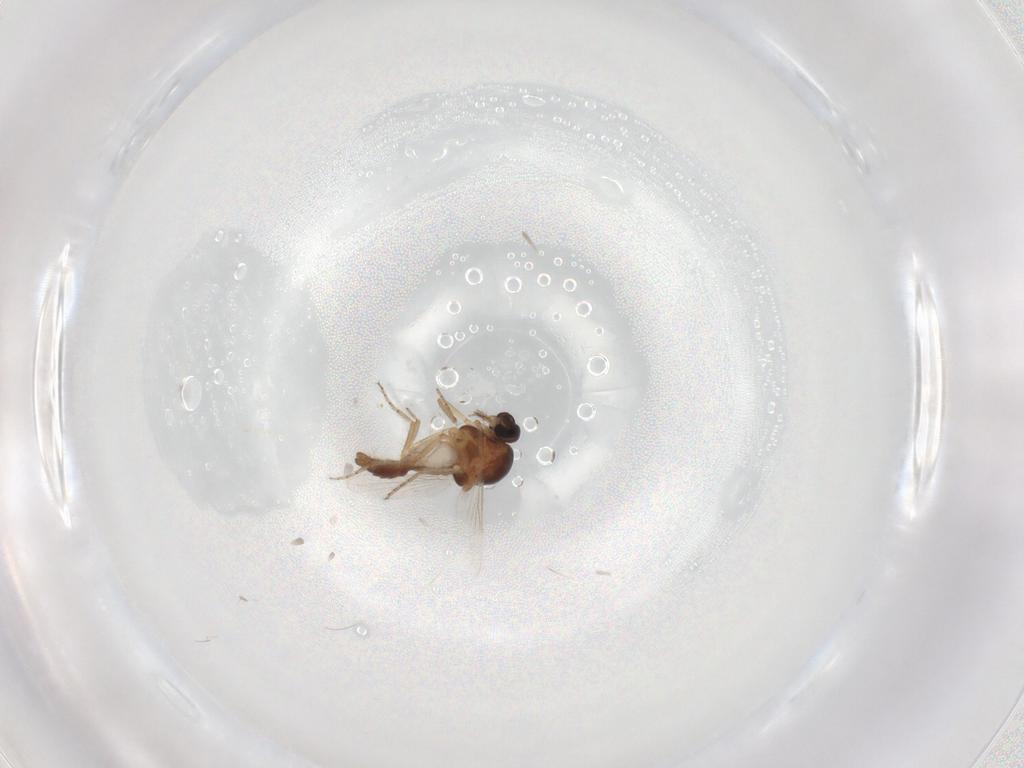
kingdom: Animalia
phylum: Arthropoda
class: Insecta
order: Diptera
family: Ceratopogonidae
